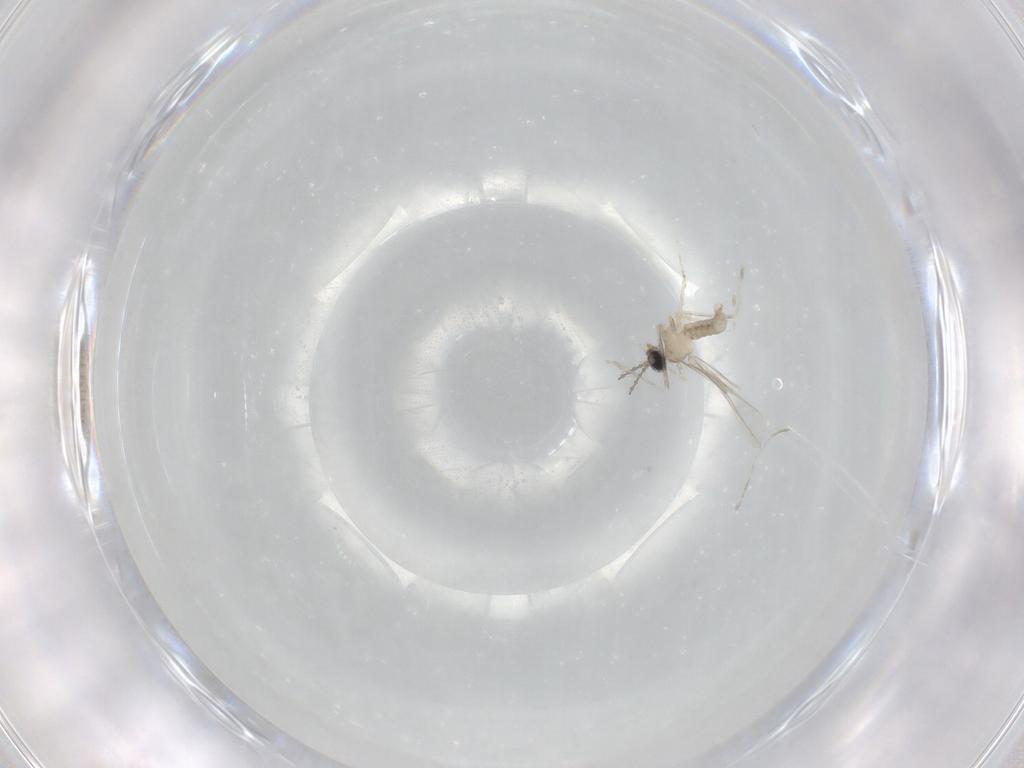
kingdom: Animalia
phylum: Arthropoda
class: Insecta
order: Diptera
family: Cecidomyiidae
